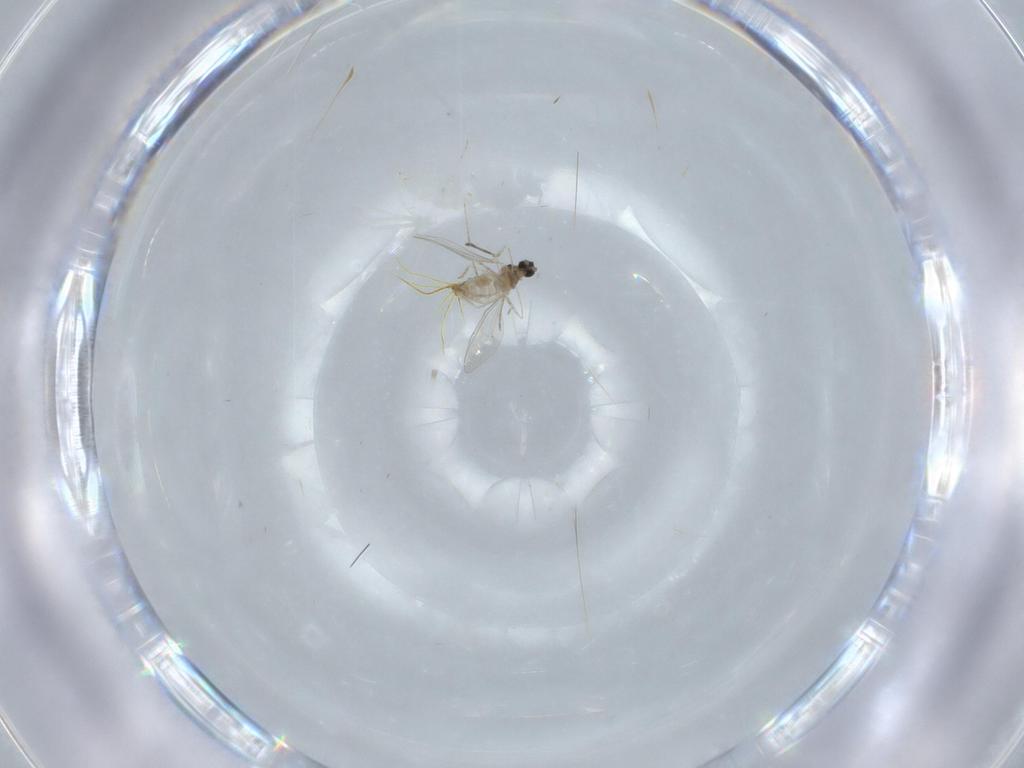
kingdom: Animalia
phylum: Arthropoda
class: Insecta
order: Diptera
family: Cecidomyiidae
